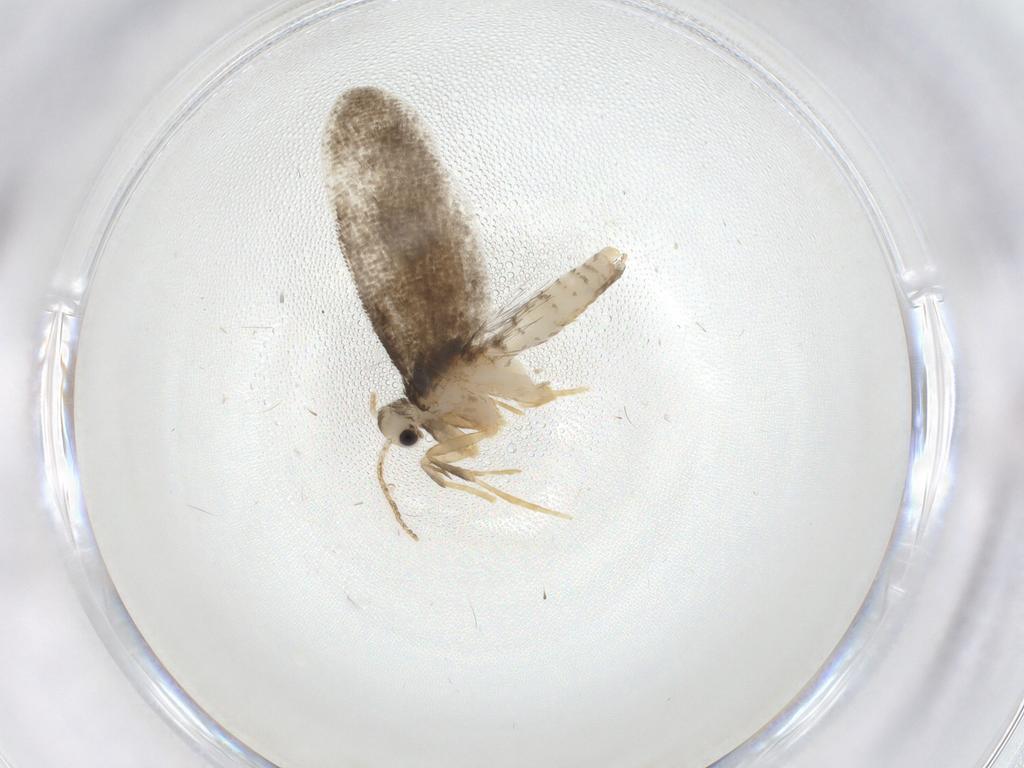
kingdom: Animalia
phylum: Arthropoda
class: Insecta
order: Lepidoptera
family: Psychidae
